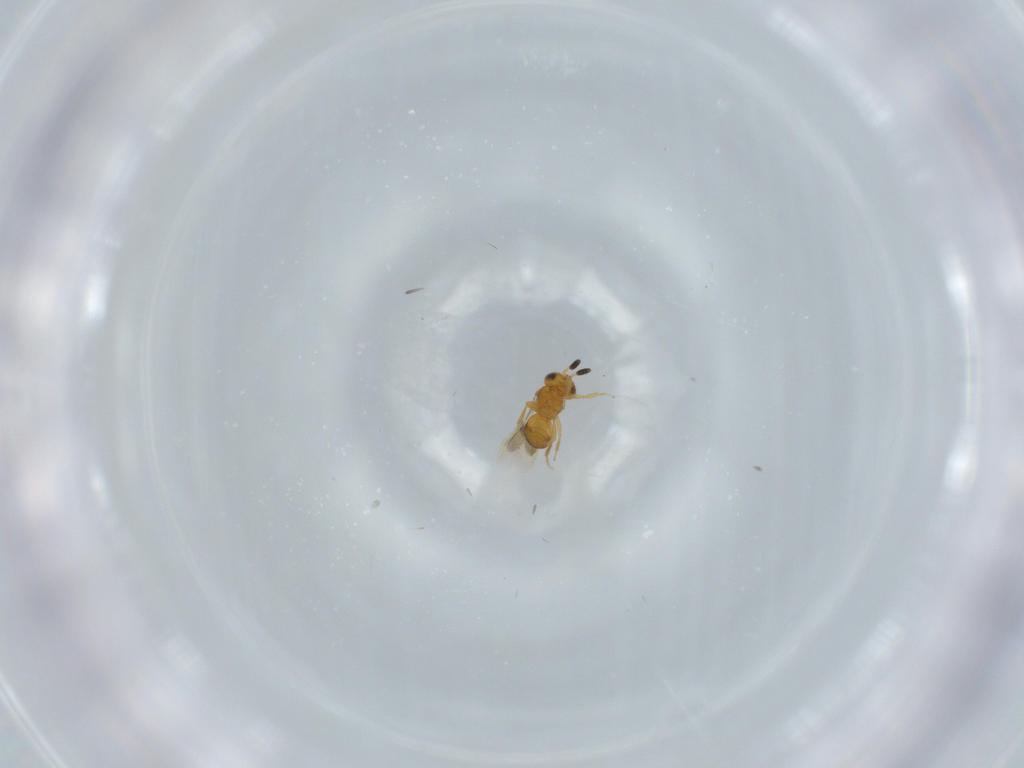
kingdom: Animalia
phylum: Arthropoda
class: Insecta
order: Hymenoptera
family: Scelionidae
